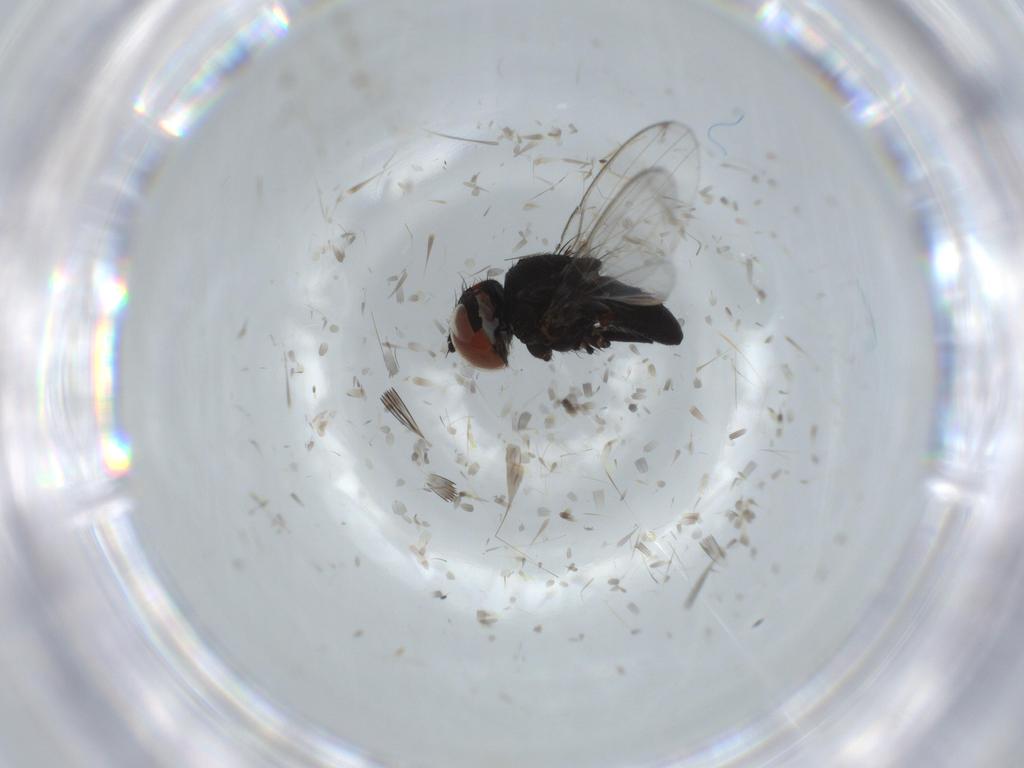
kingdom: Animalia
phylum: Arthropoda
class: Insecta
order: Diptera
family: Milichiidae
